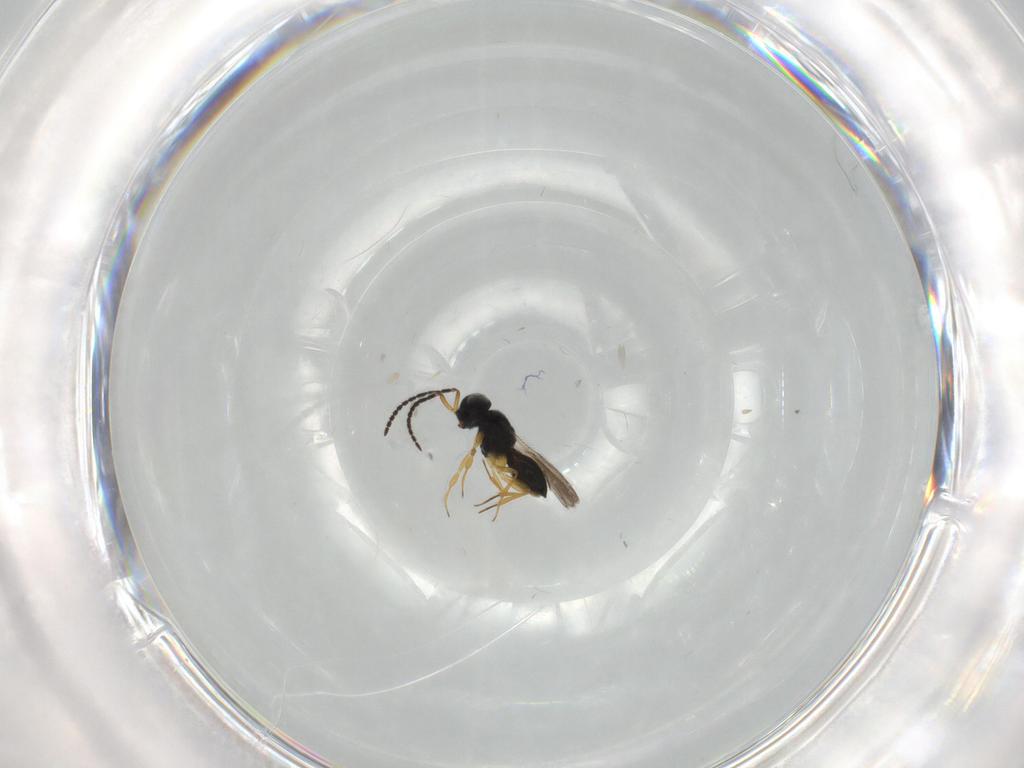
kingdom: Animalia
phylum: Arthropoda
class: Insecta
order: Hymenoptera
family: Scelionidae
